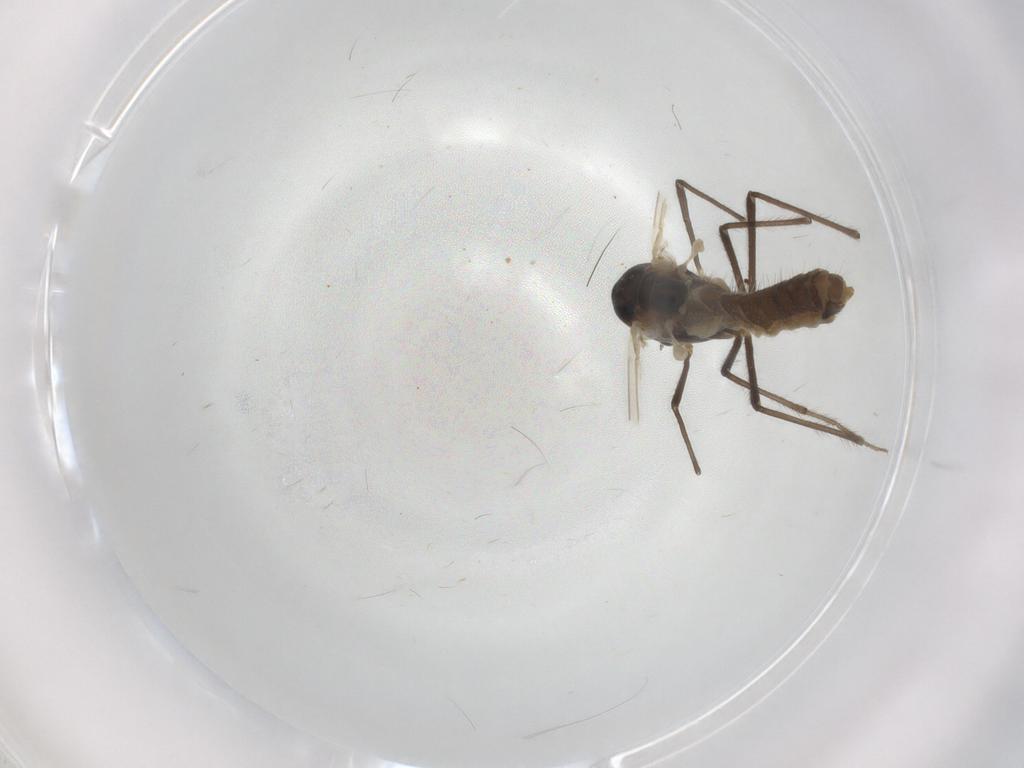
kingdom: Animalia
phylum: Arthropoda
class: Insecta
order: Diptera
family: Chironomidae
